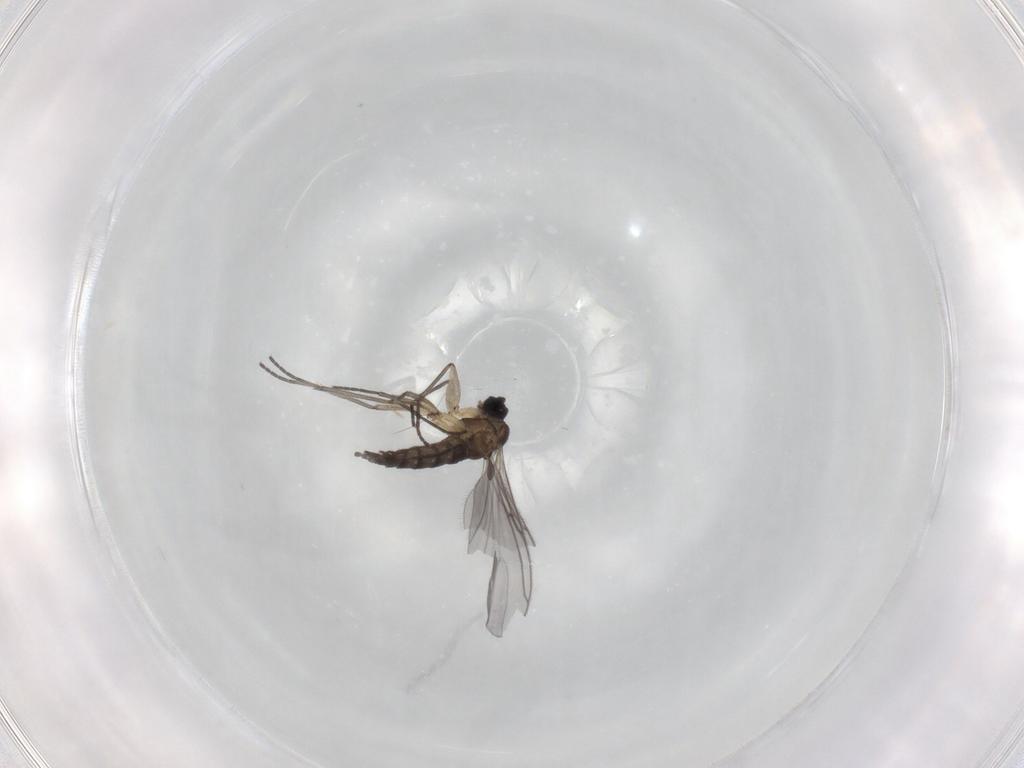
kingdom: Animalia
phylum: Arthropoda
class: Insecta
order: Diptera
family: Sciaridae
